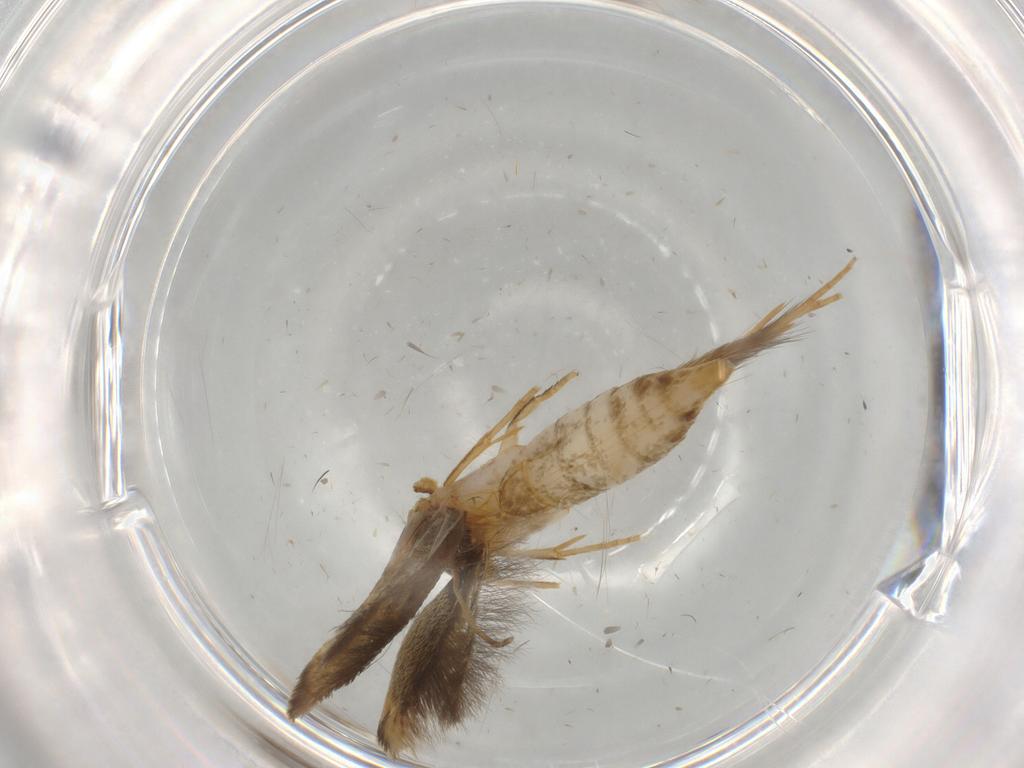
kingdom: Animalia
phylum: Arthropoda
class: Insecta
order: Lepidoptera
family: Tineidae
